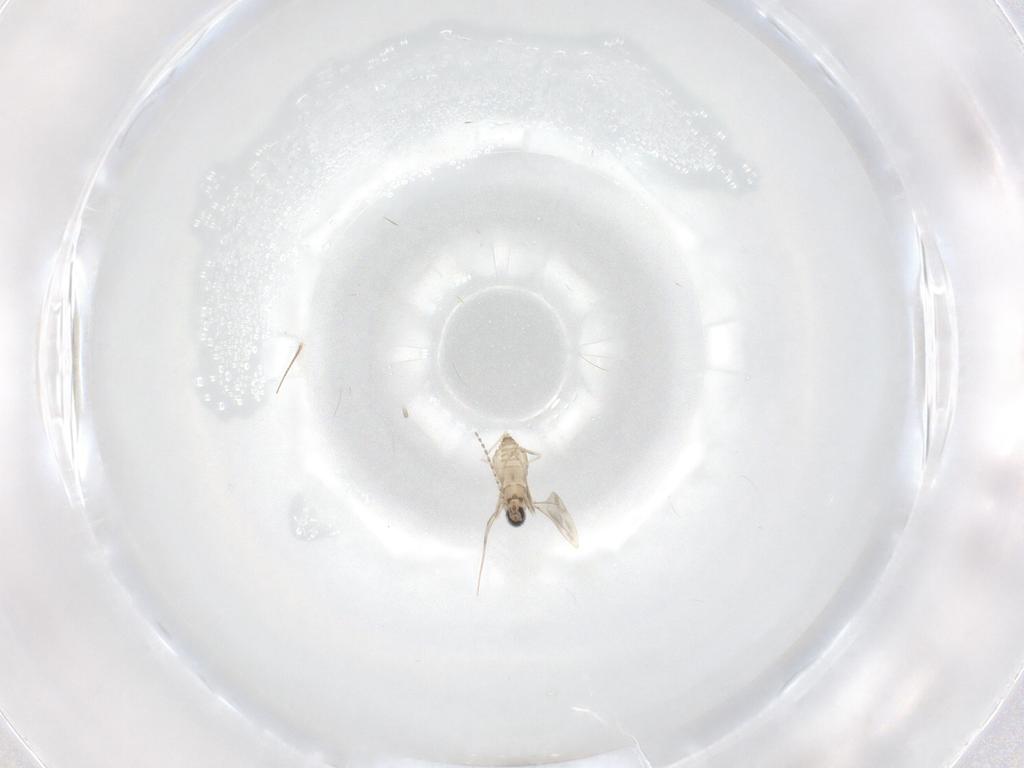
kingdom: Animalia
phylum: Arthropoda
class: Insecta
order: Diptera
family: Cecidomyiidae
